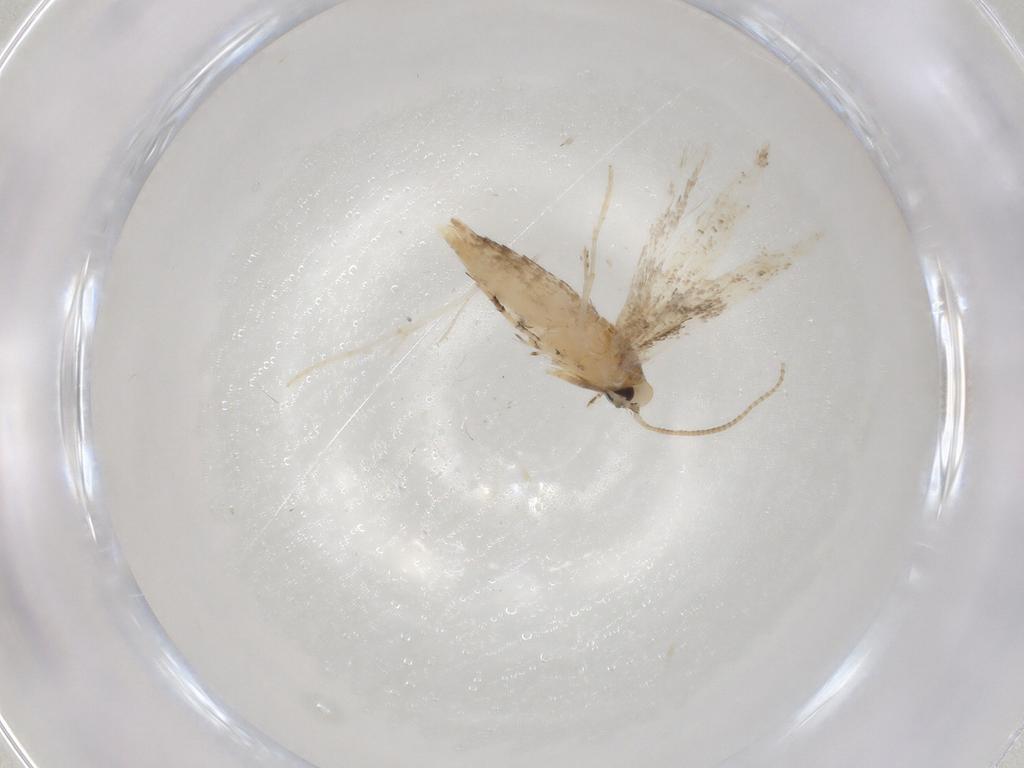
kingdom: Animalia
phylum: Arthropoda
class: Insecta
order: Lepidoptera
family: Gracillariidae
